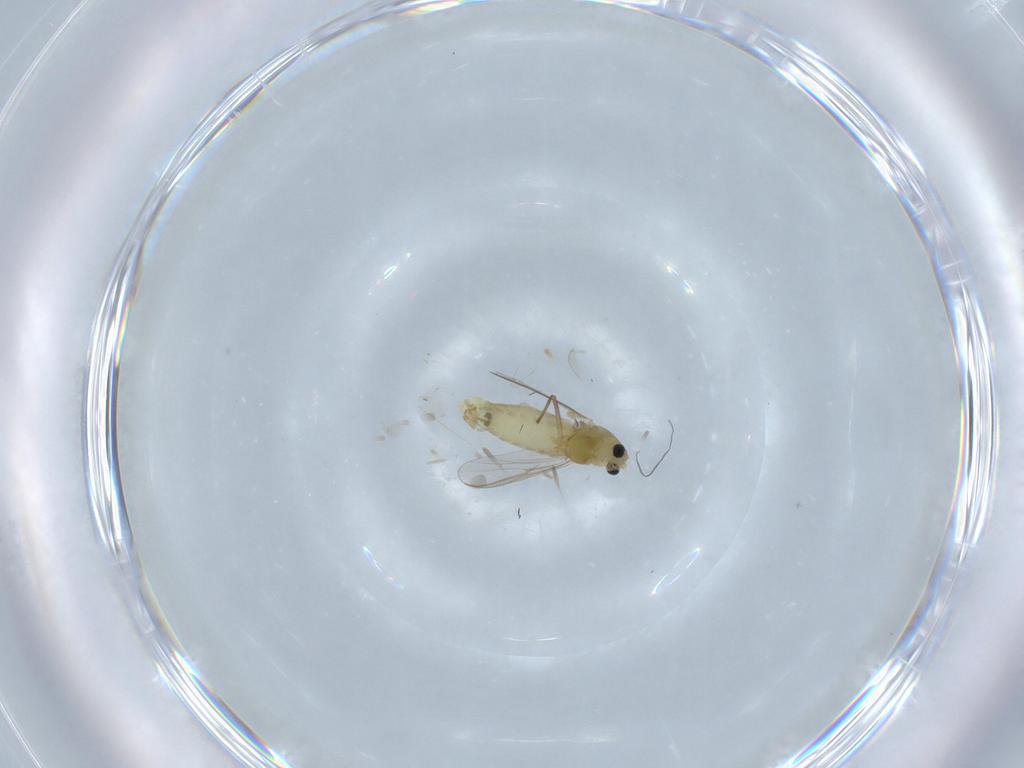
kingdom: Animalia
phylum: Arthropoda
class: Insecta
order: Diptera
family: Chironomidae
